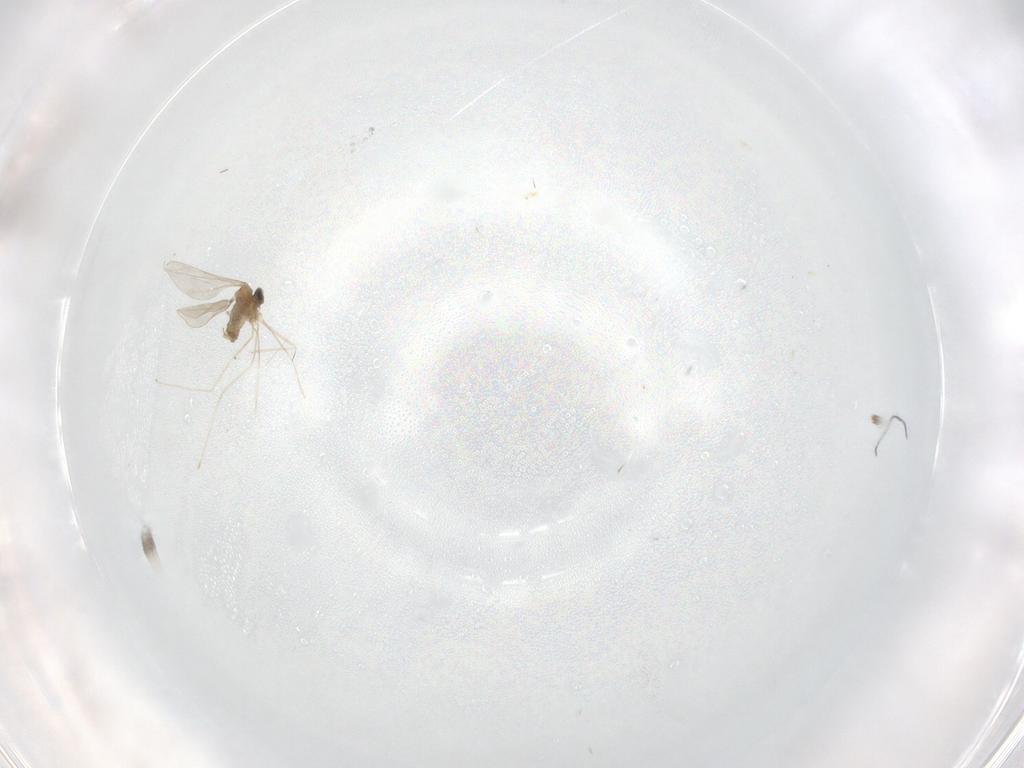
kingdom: Animalia
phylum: Arthropoda
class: Insecta
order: Diptera
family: Cecidomyiidae
